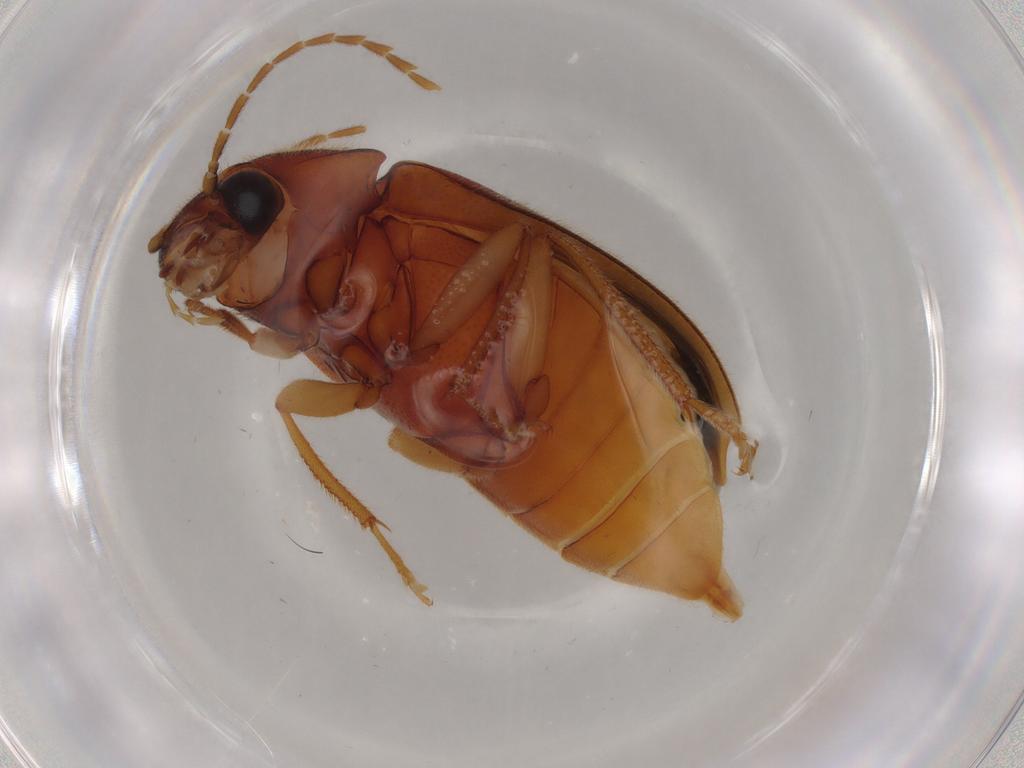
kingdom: Animalia
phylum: Arthropoda
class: Insecta
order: Coleoptera
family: Ptilodactylidae
